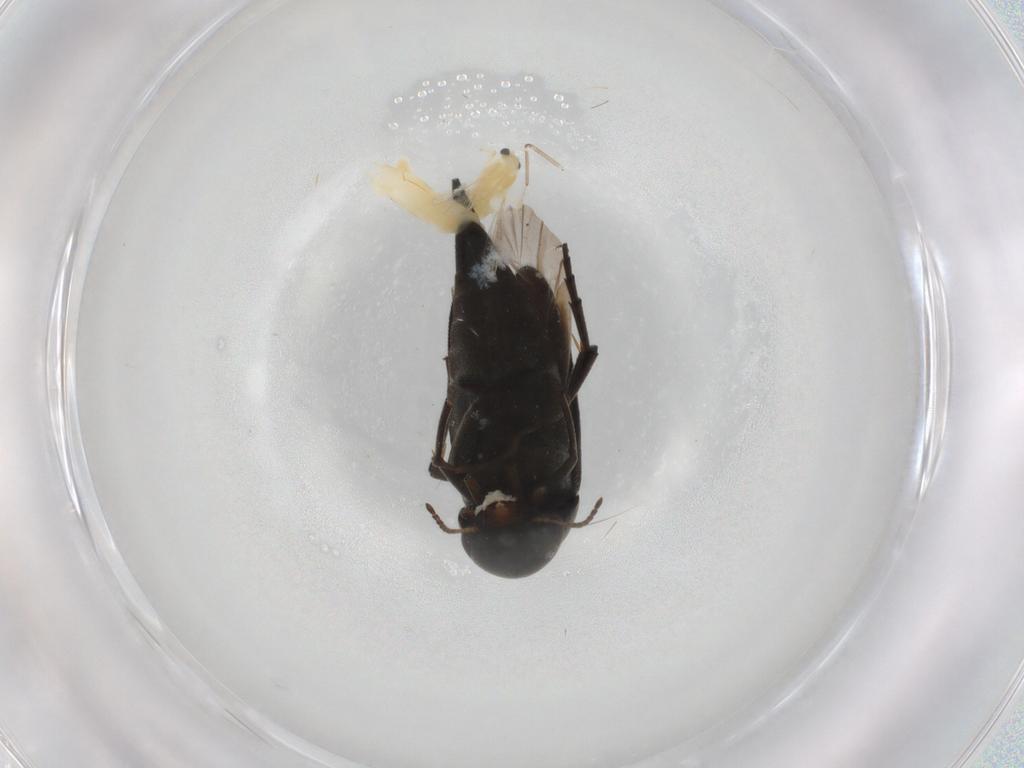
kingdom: Animalia
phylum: Arthropoda
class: Insecta
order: Diptera
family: Chironomidae
